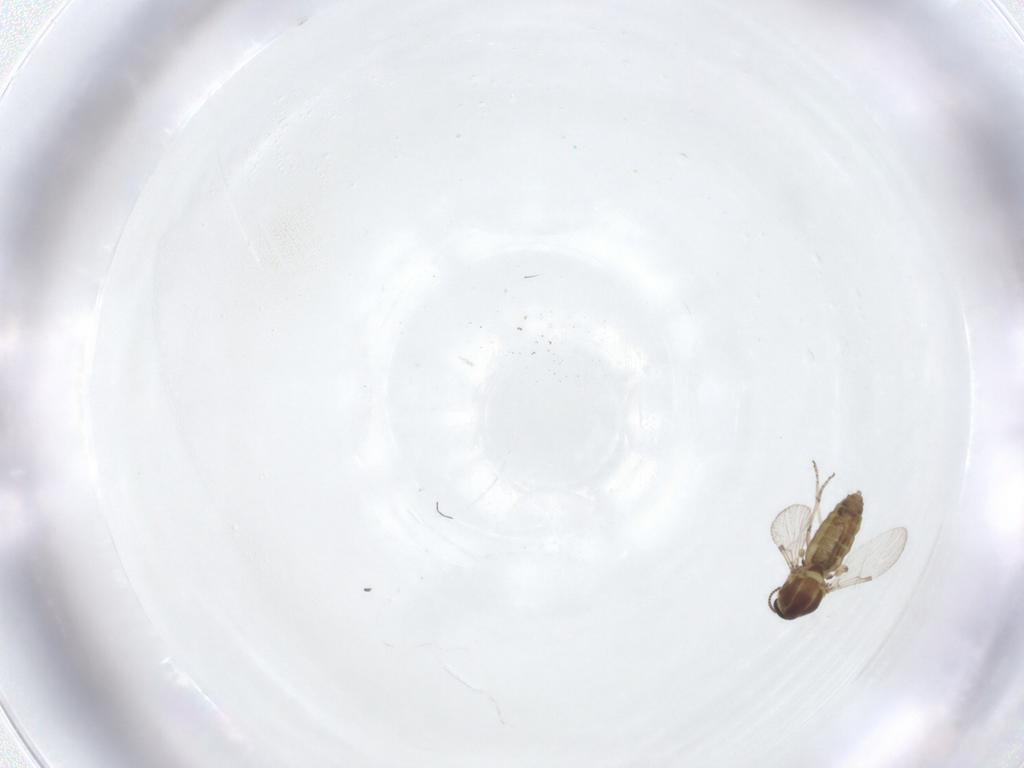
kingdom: Animalia
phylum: Arthropoda
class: Insecta
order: Diptera
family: Ceratopogonidae
